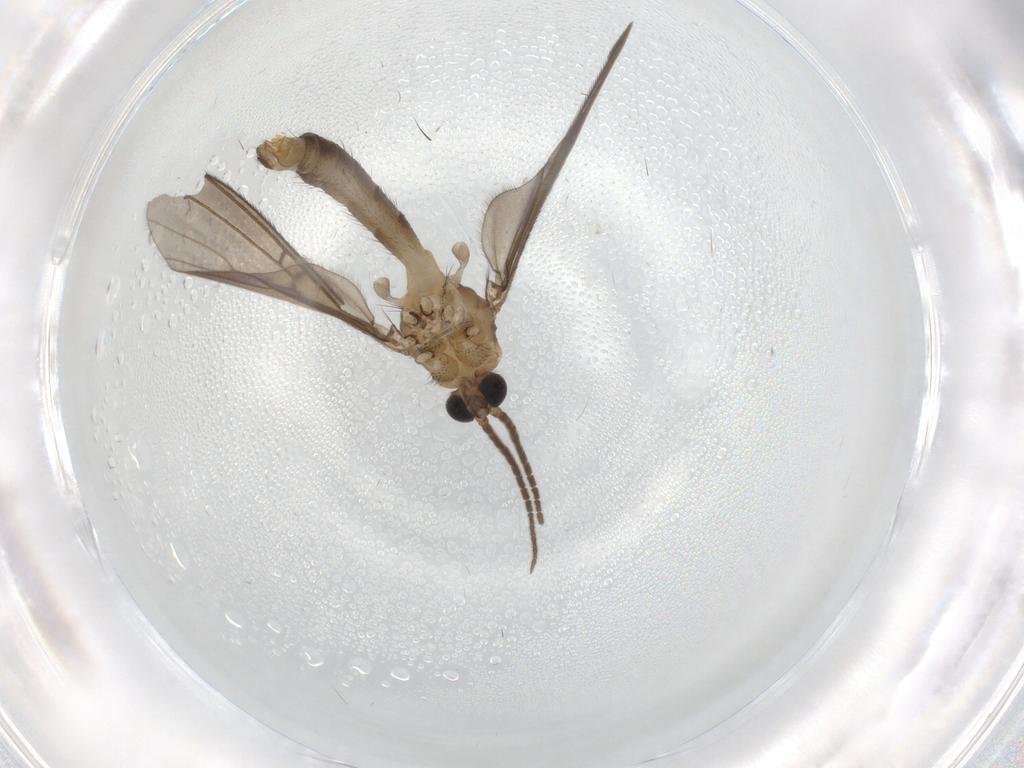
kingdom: Animalia
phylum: Arthropoda
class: Insecta
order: Diptera
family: Phoridae
